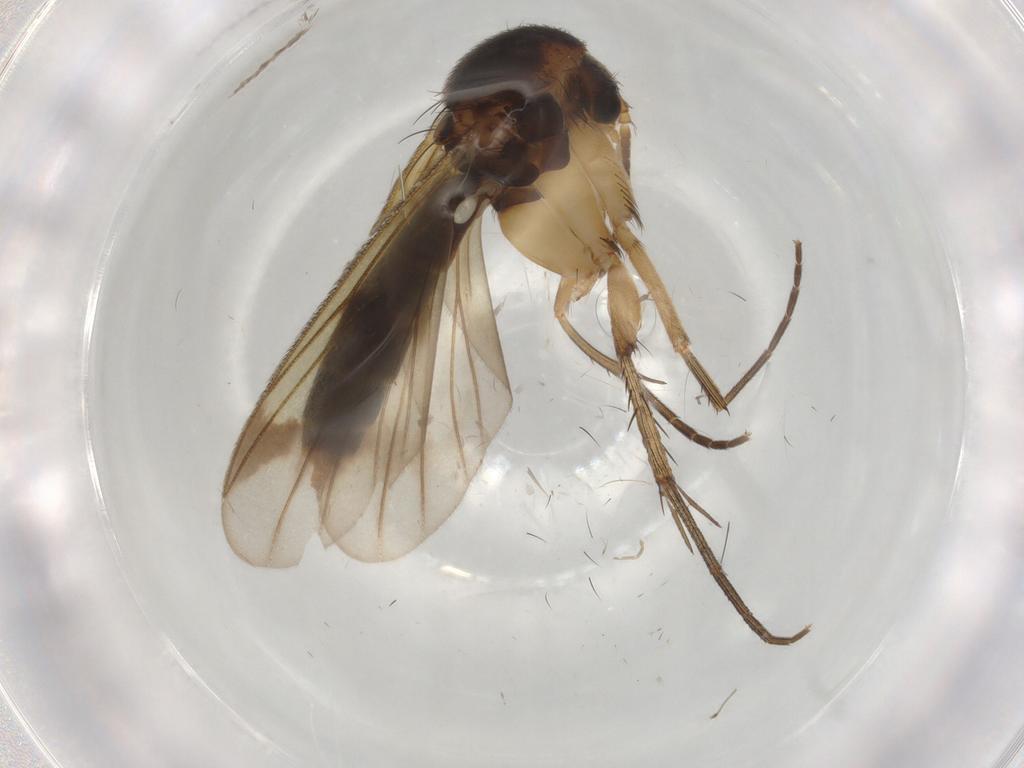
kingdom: Animalia
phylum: Arthropoda
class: Insecta
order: Diptera
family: Mycetophilidae
